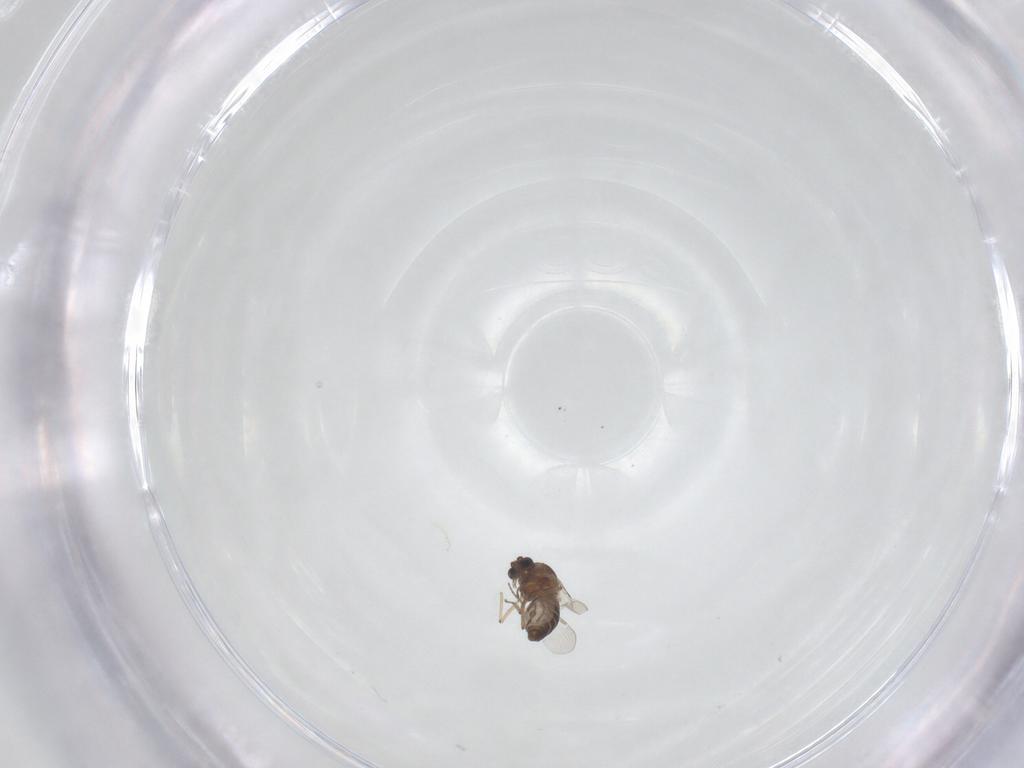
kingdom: Animalia
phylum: Arthropoda
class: Insecta
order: Diptera
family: Ceratopogonidae
